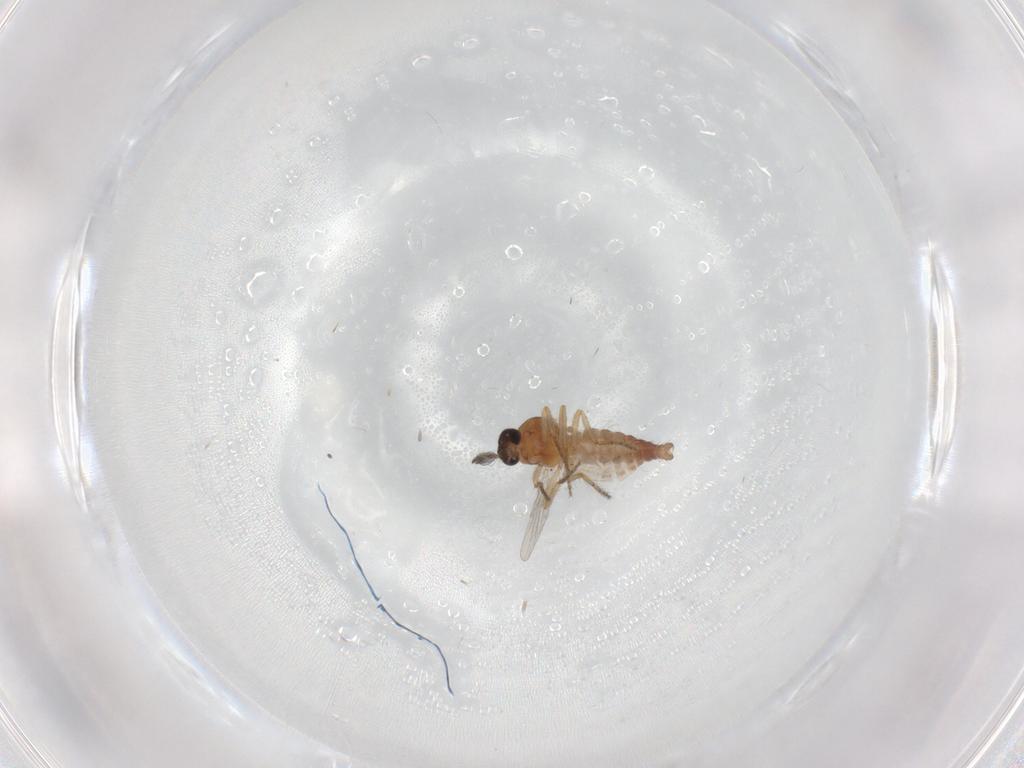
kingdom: Animalia
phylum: Arthropoda
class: Insecta
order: Diptera
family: Ceratopogonidae
